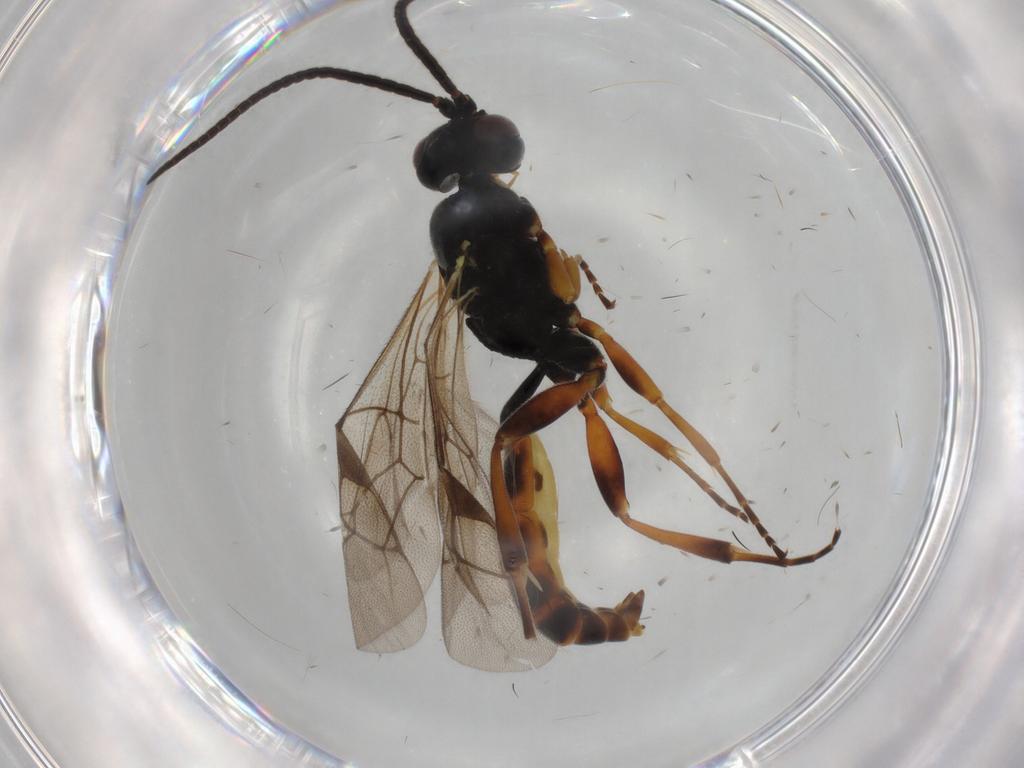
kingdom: Animalia
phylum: Arthropoda
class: Insecta
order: Hymenoptera
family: Ichneumonidae
